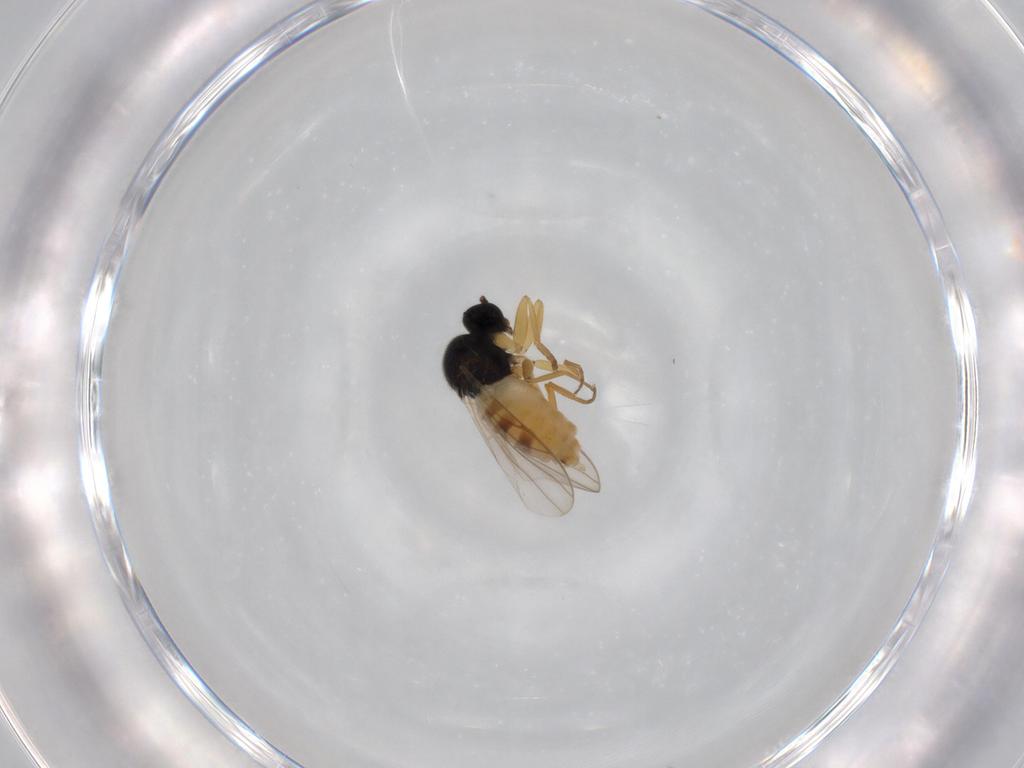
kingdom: Animalia
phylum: Arthropoda
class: Insecta
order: Diptera
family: Hybotidae
